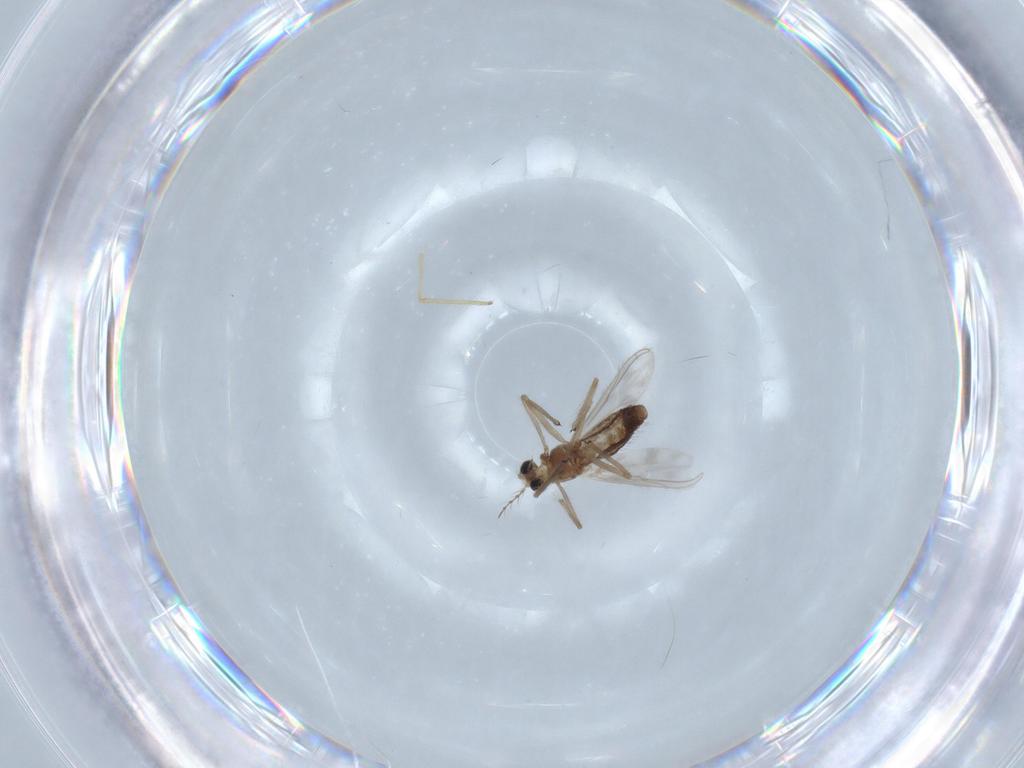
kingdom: Animalia
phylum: Arthropoda
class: Insecta
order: Diptera
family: Chironomidae
